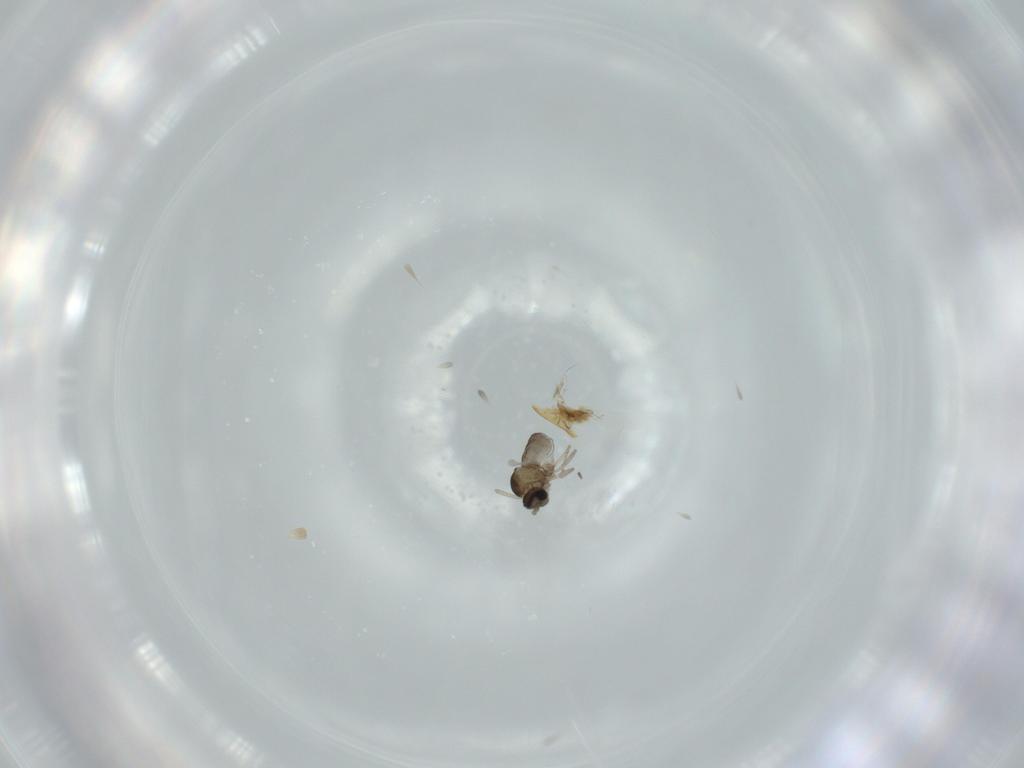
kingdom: Animalia
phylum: Arthropoda
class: Insecta
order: Diptera
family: Cecidomyiidae
